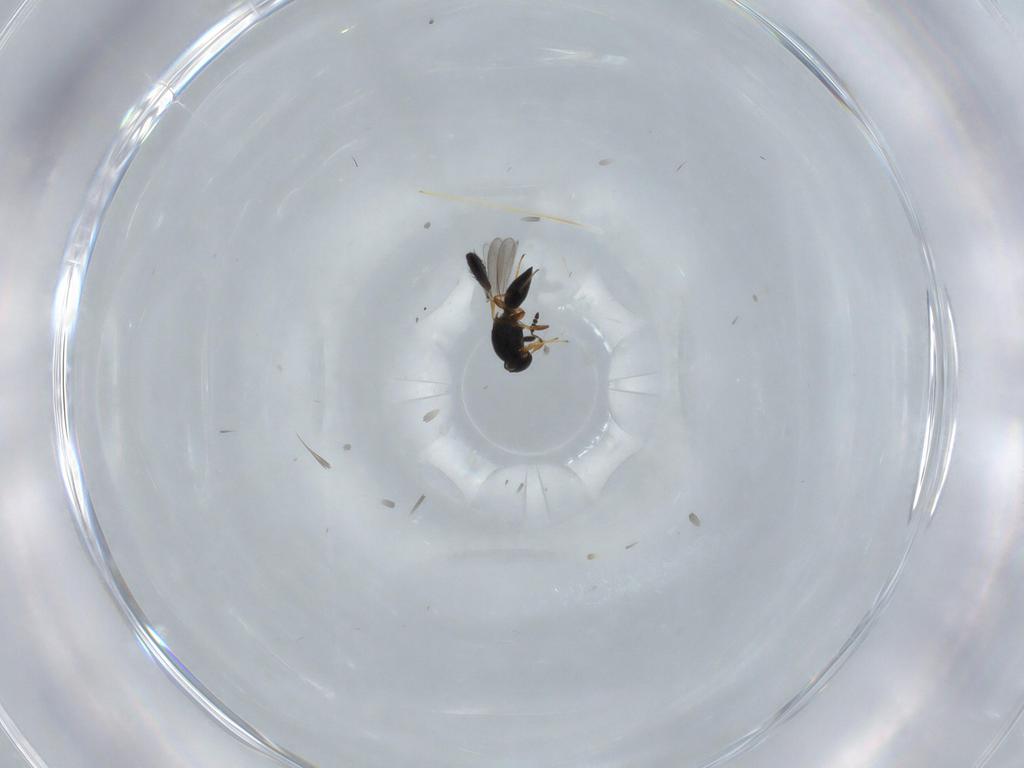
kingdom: Animalia
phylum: Arthropoda
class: Insecta
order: Hymenoptera
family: Platygastridae
